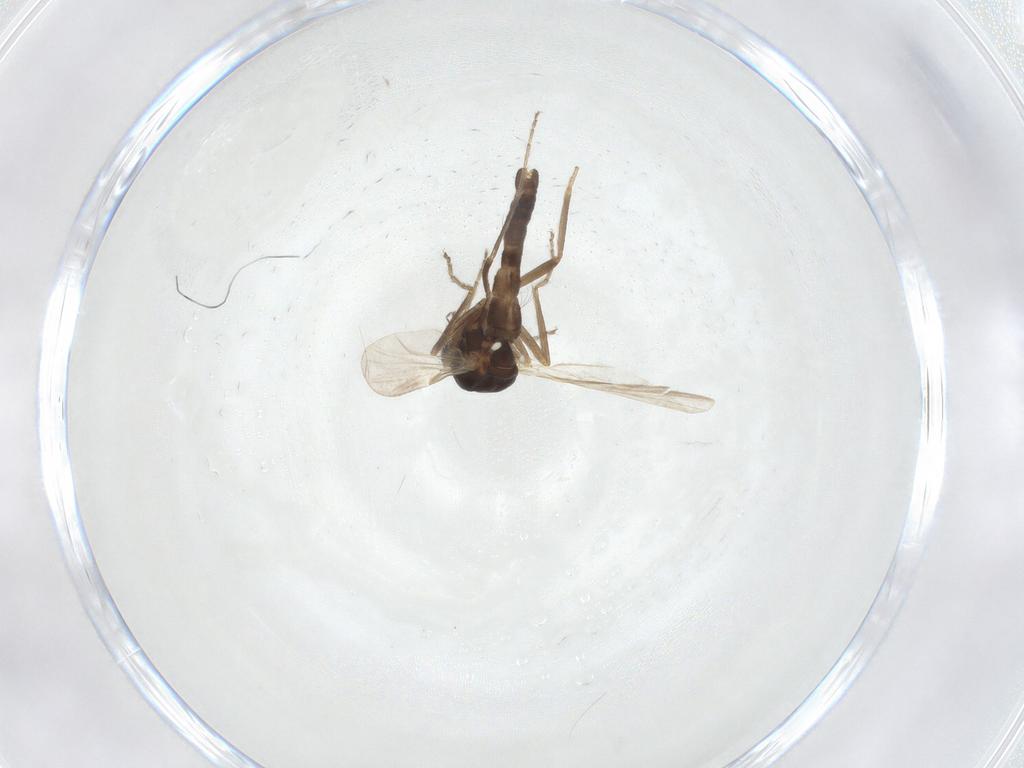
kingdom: Animalia
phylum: Arthropoda
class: Insecta
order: Diptera
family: Ceratopogonidae
